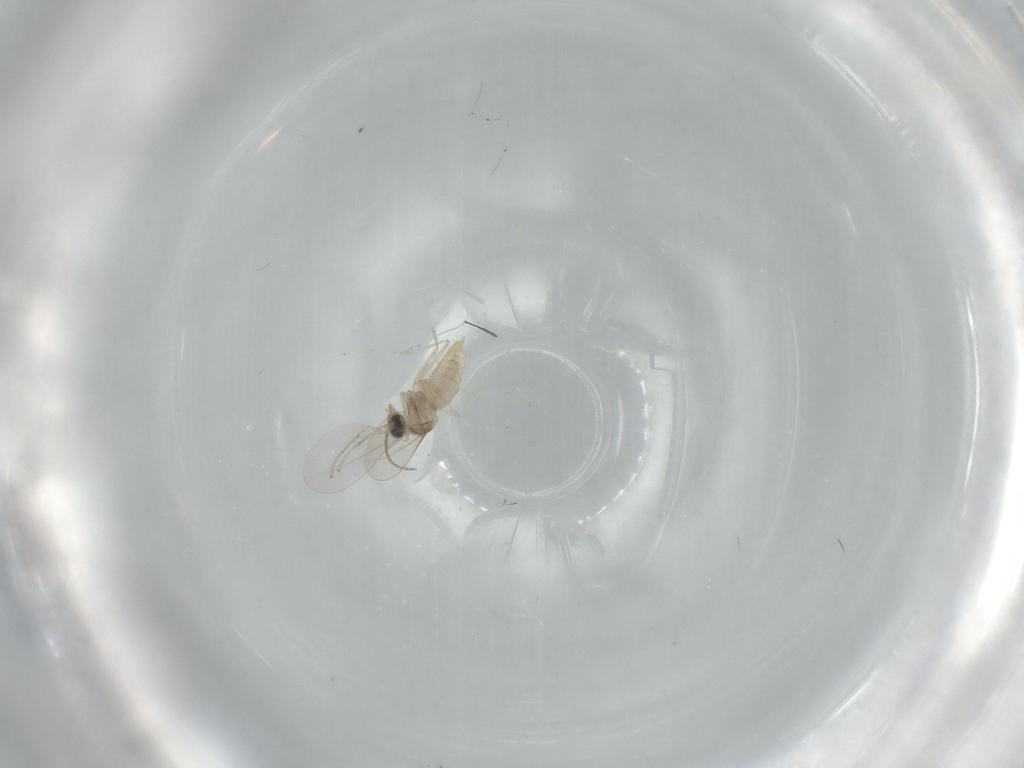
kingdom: Animalia
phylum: Arthropoda
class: Insecta
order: Diptera
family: Cecidomyiidae
